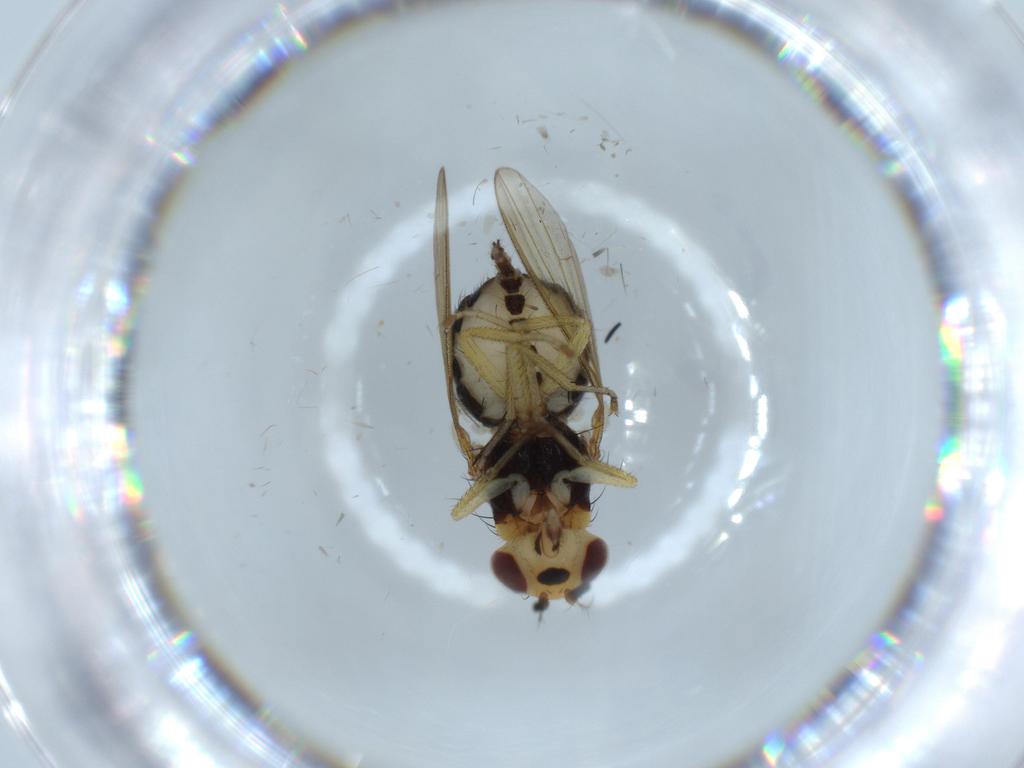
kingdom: Animalia
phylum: Arthropoda
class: Insecta
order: Diptera
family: Lauxaniidae
